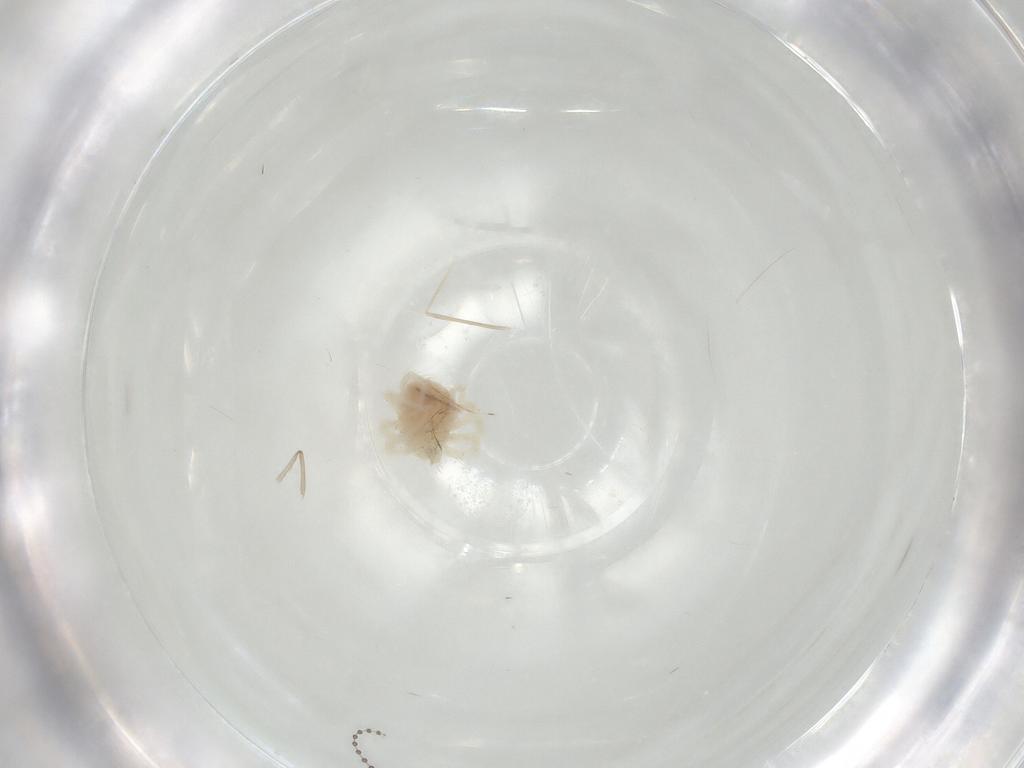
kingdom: Animalia
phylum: Arthropoda
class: Arachnida
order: Trombidiformes
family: Anystidae
